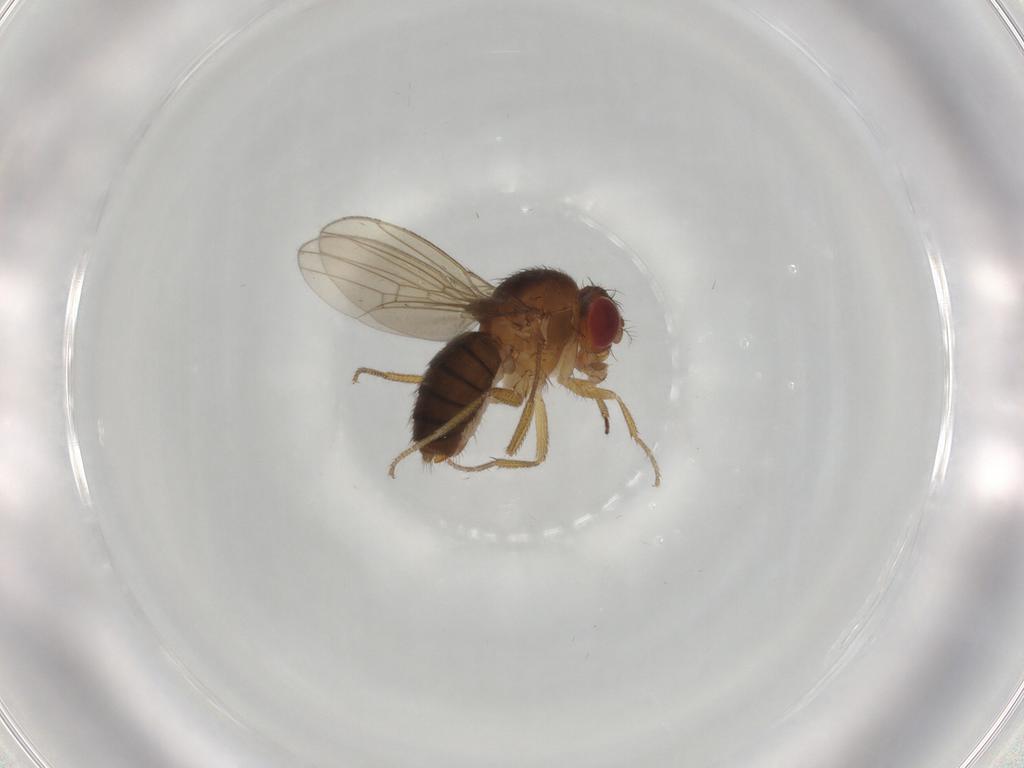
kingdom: Animalia
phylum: Arthropoda
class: Insecta
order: Diptera
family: Drosophilidae
